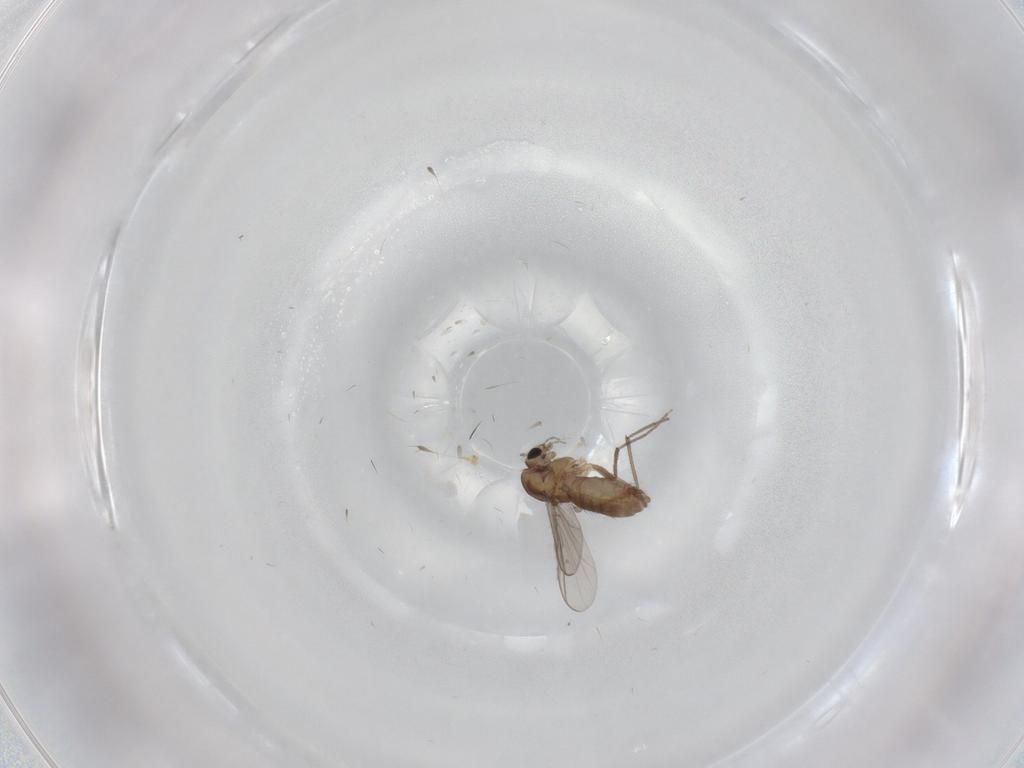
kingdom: Animalia
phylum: Arthropoda
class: Insecta
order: Diptera
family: Chironomidae
